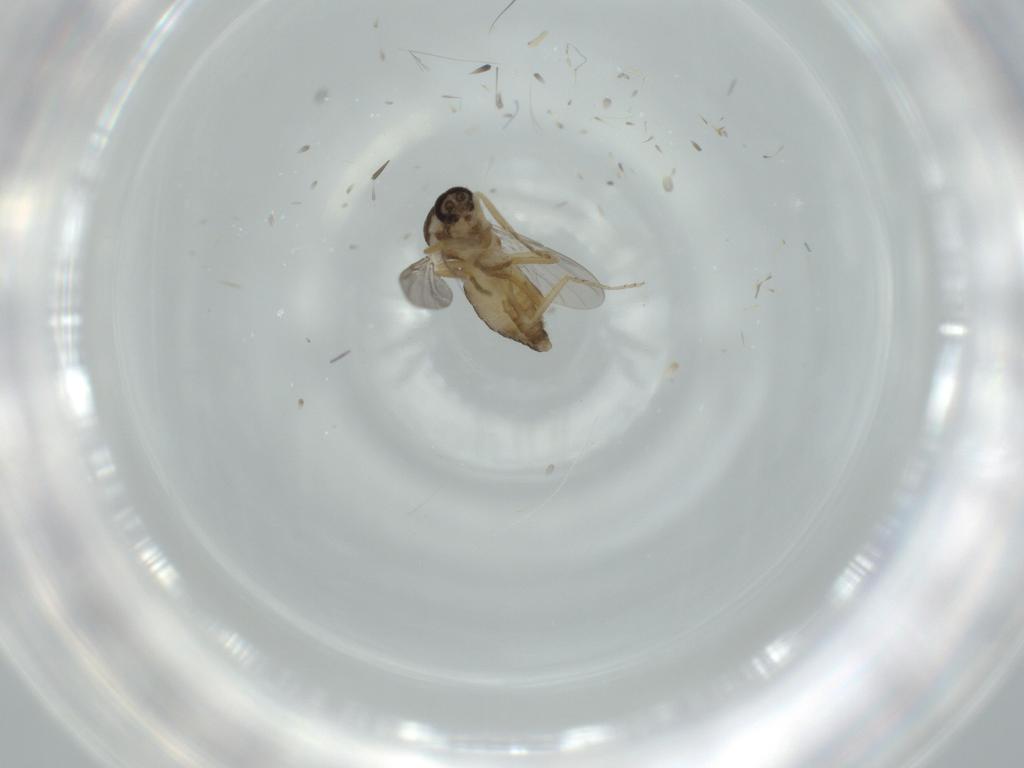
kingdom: Animalia
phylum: Arthropoda
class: Insecta
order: Diptera
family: Ceratopogonidae
